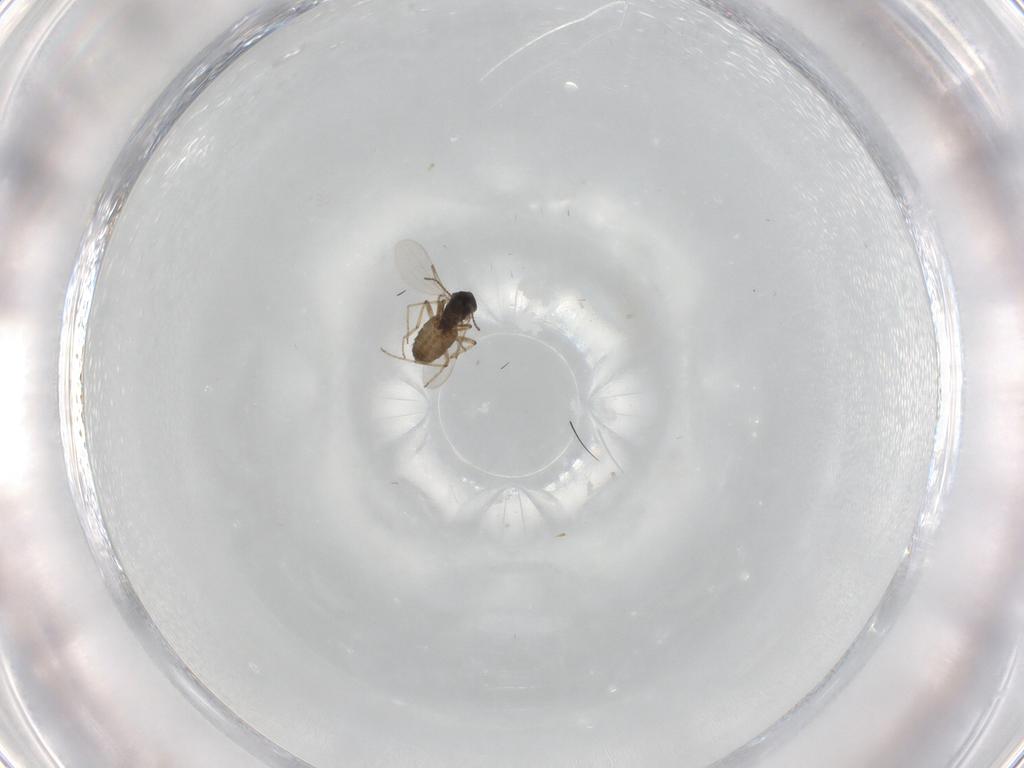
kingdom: Animalia
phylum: Arthropoda
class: Insecta
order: Diptera
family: Ceratopogonidae
